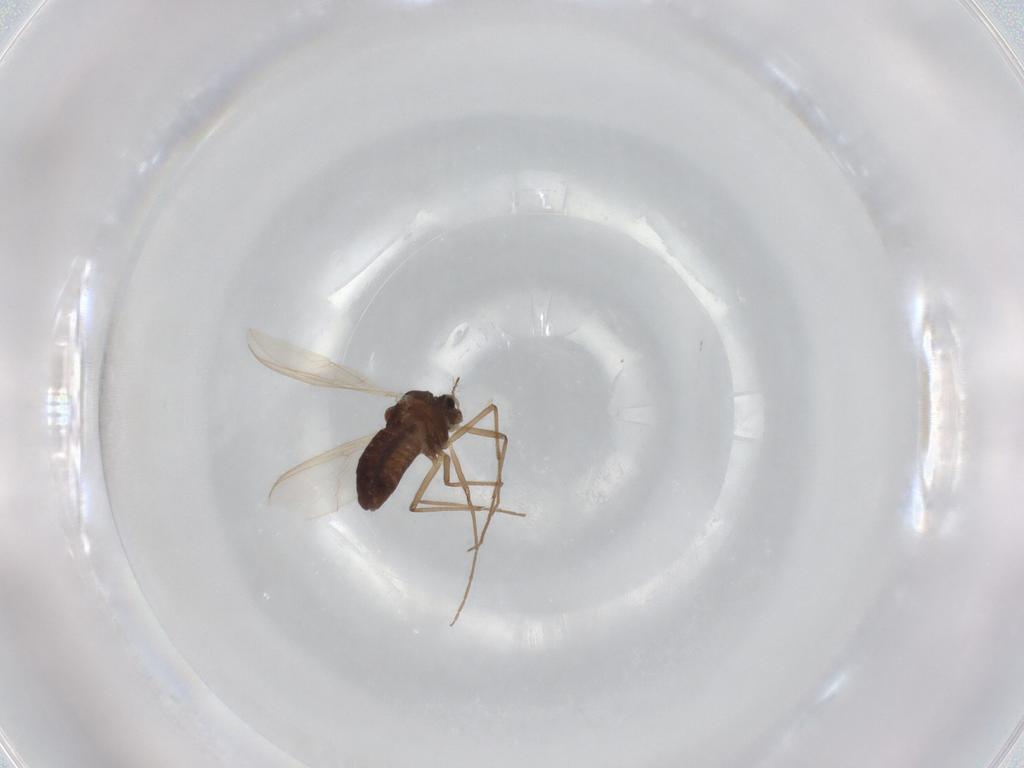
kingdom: Animalia
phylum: Arthropoda
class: Insecta
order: Diptera
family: Chironomidae
